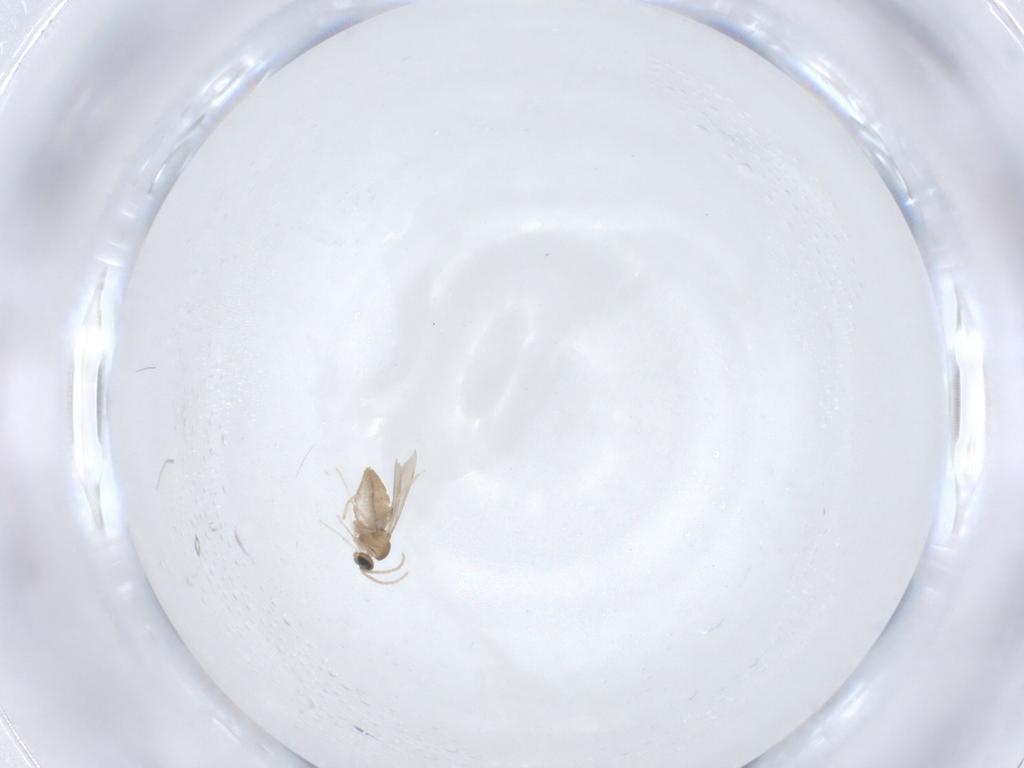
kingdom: Animalia
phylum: Arthropoda
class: Insecta
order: Diptera
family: Cecidomyiidae
